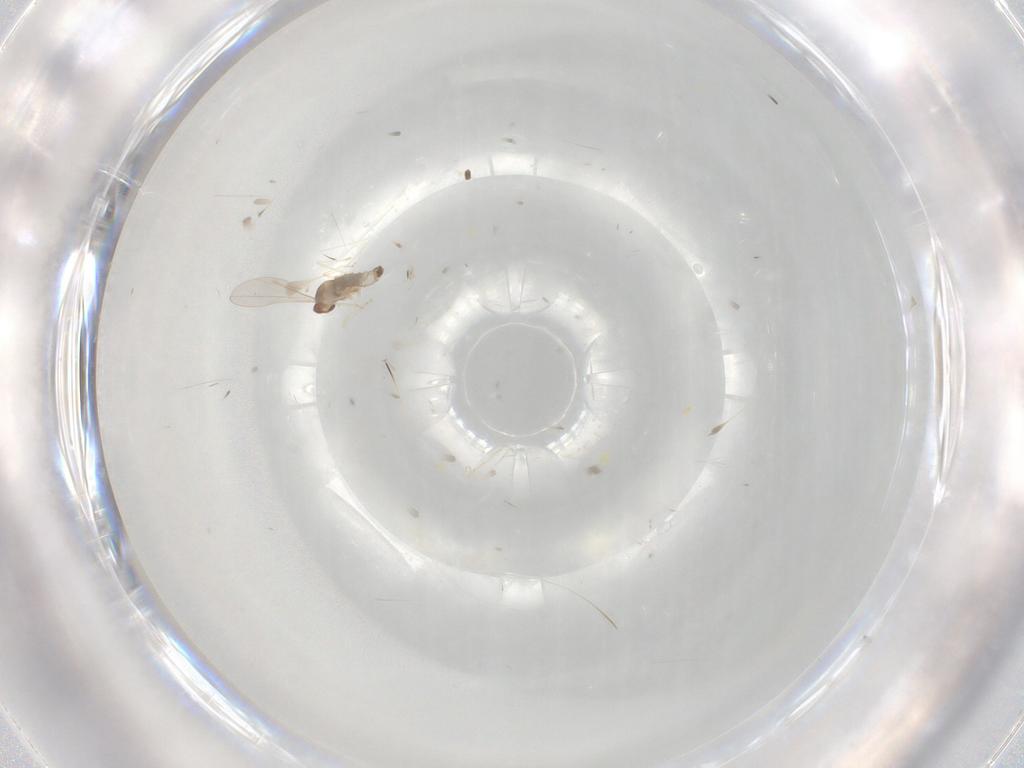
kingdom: Animalia
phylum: Arthropoda
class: Insecta
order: Diptera
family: Cecidomyiidae
